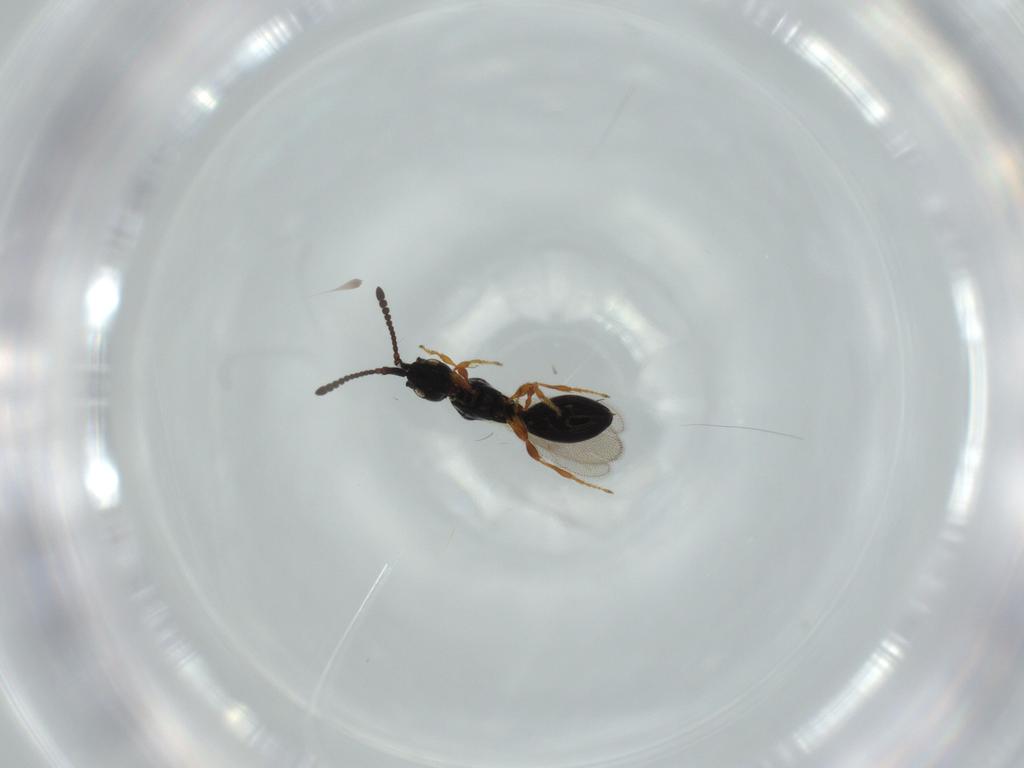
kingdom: Animalia
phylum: Arthropoda
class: Insecta
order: Hymenoptera
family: Diapriidae
